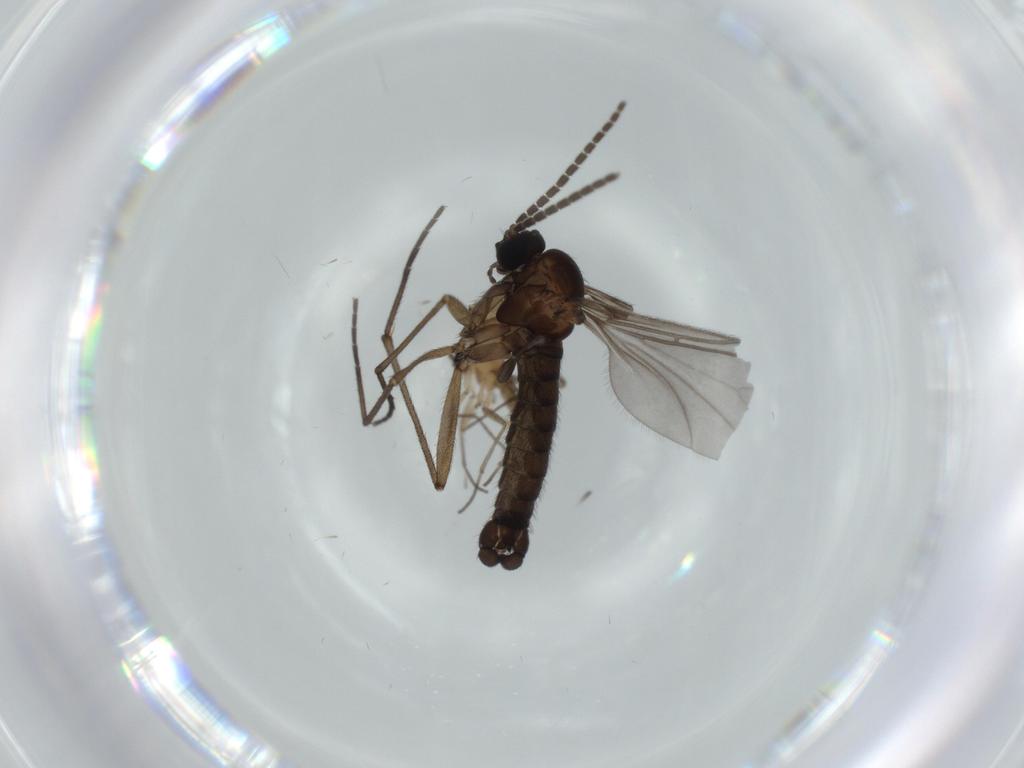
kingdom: Animalia
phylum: Arthropoda
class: Insecta
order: Diptera
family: Sciaridae
